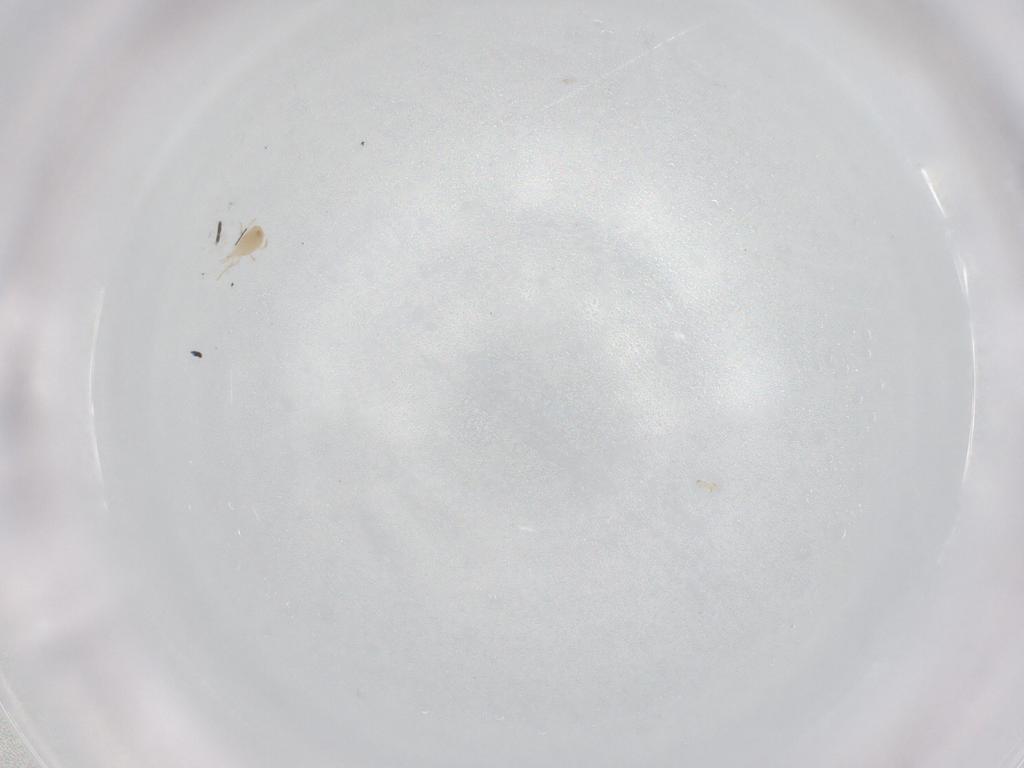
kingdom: Animalia
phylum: Arthropoda
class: Arachnida
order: Mesostigmata
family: Phytoseiidae
